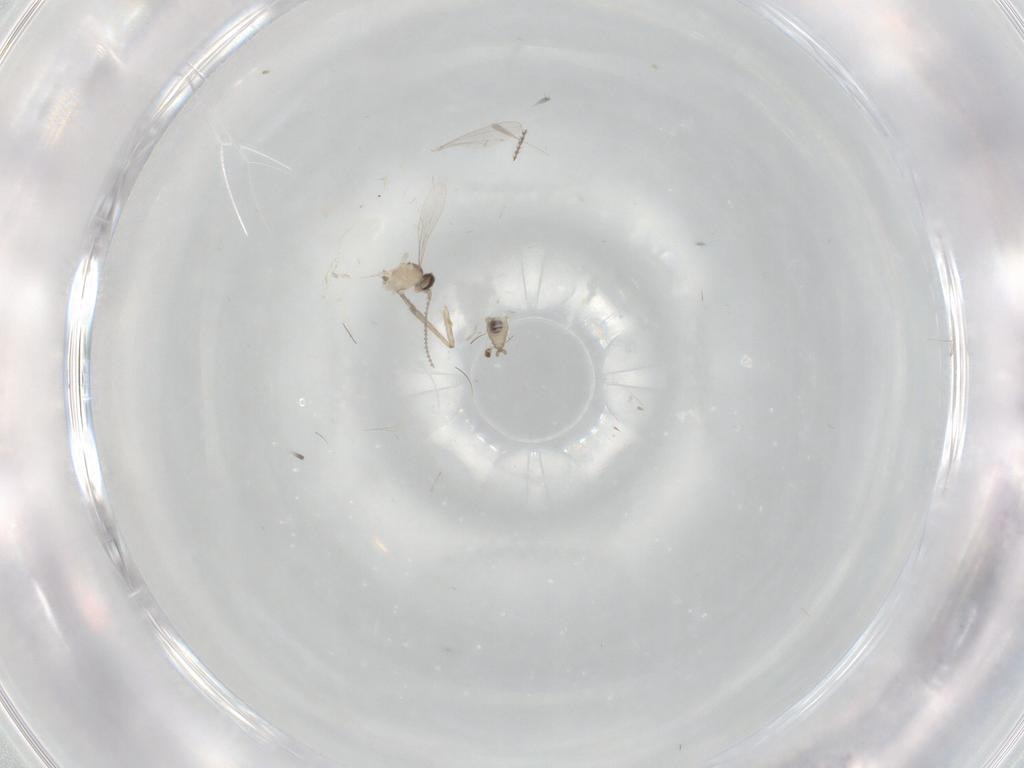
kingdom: Animalia
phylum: Arthropoda
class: Insecta
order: Diptera
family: Cecidomyiidae
